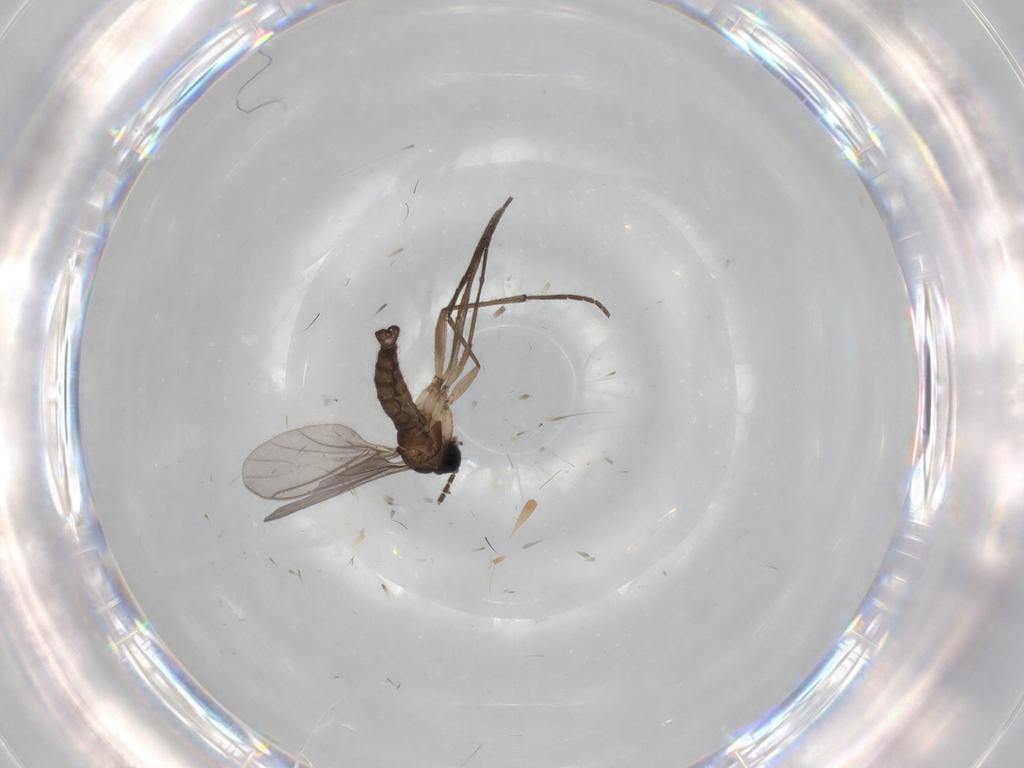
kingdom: Animalia
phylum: Arthropoda
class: Insecta
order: Diptera
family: Sciaridae
